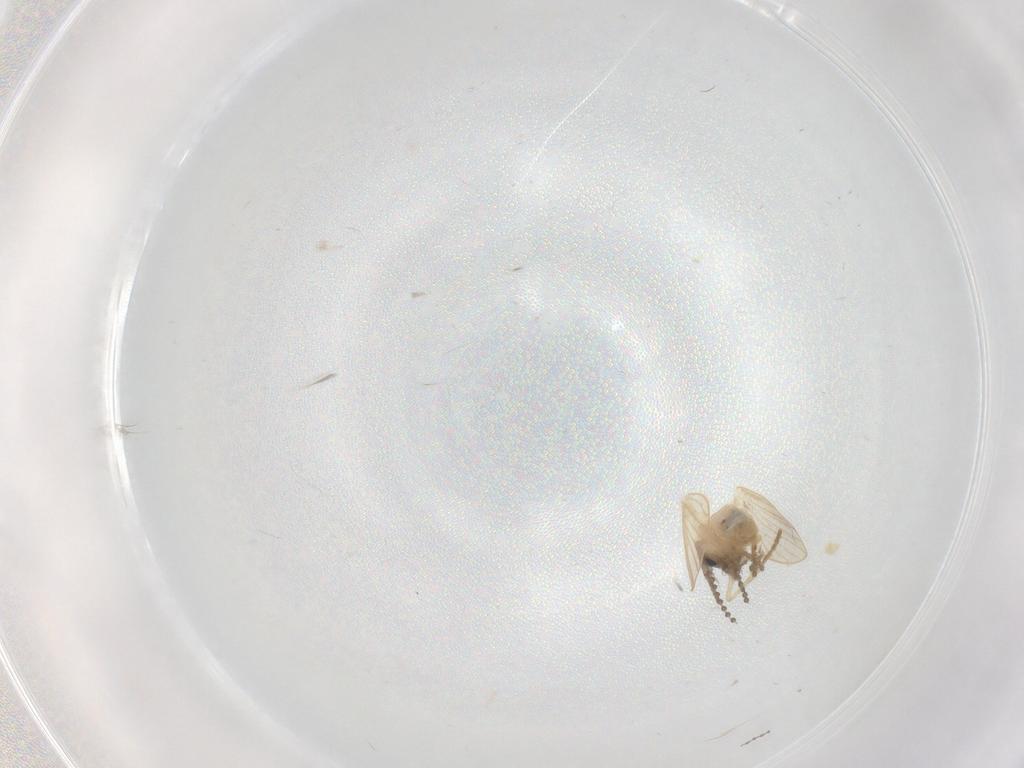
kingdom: Animalia
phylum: Arthropoda
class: Insecta
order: Diptera
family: Psychodidae
